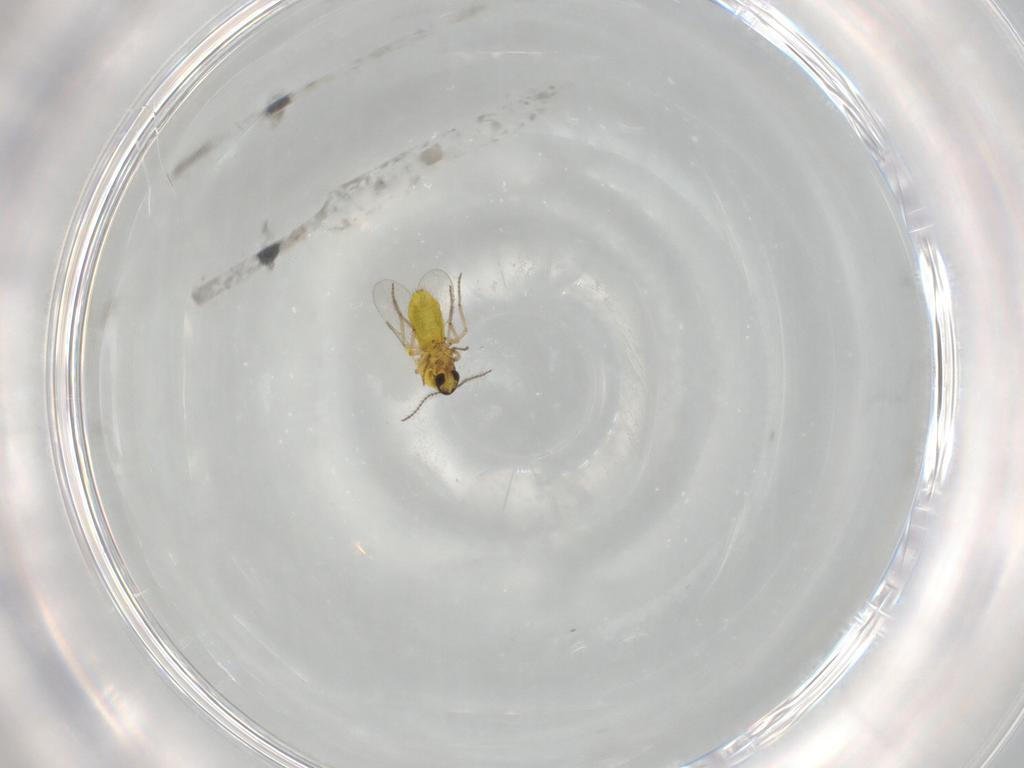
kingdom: Animalia
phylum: Arthropoda
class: Insecta
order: Diptera
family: Ceratopogonidae
